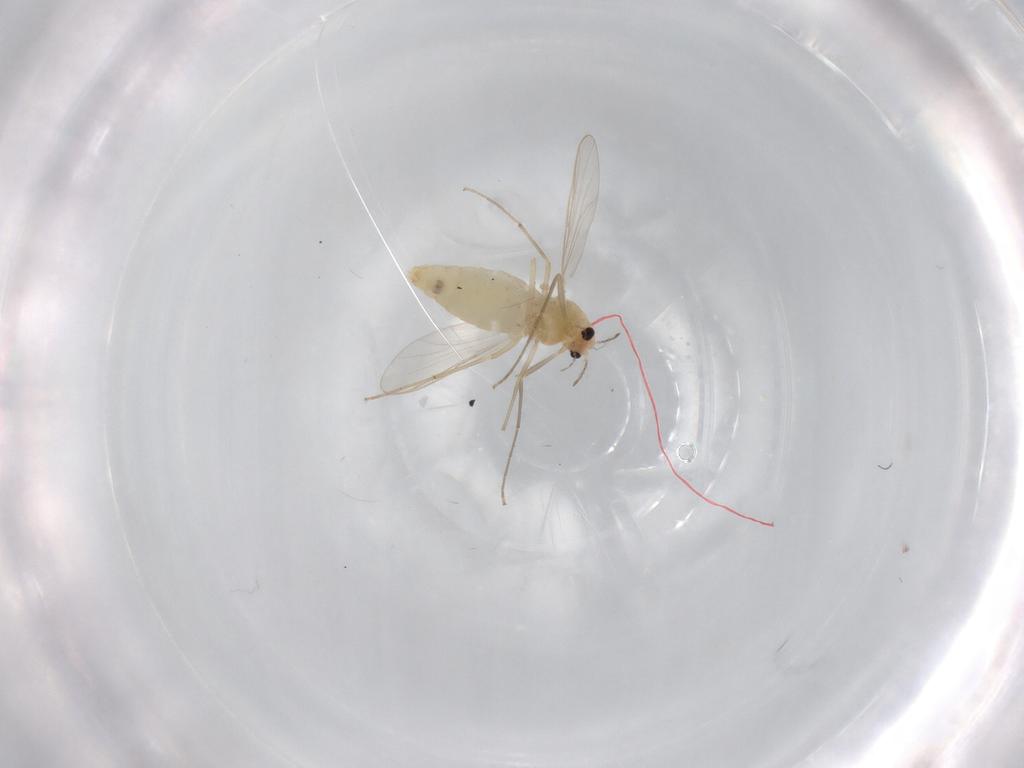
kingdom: Animalia
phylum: Arthropoda
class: Insecta
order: Diptera
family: Chironomidae
